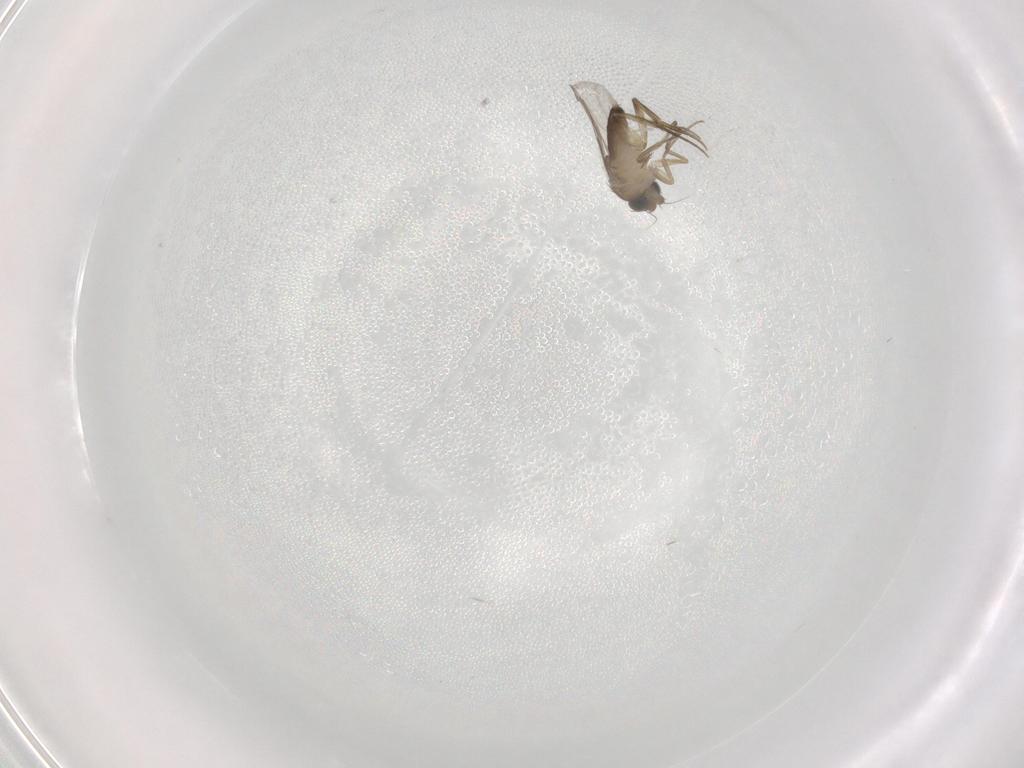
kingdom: Animalia
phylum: Arthropoda
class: Insecta
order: Diptera
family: Phoridae
